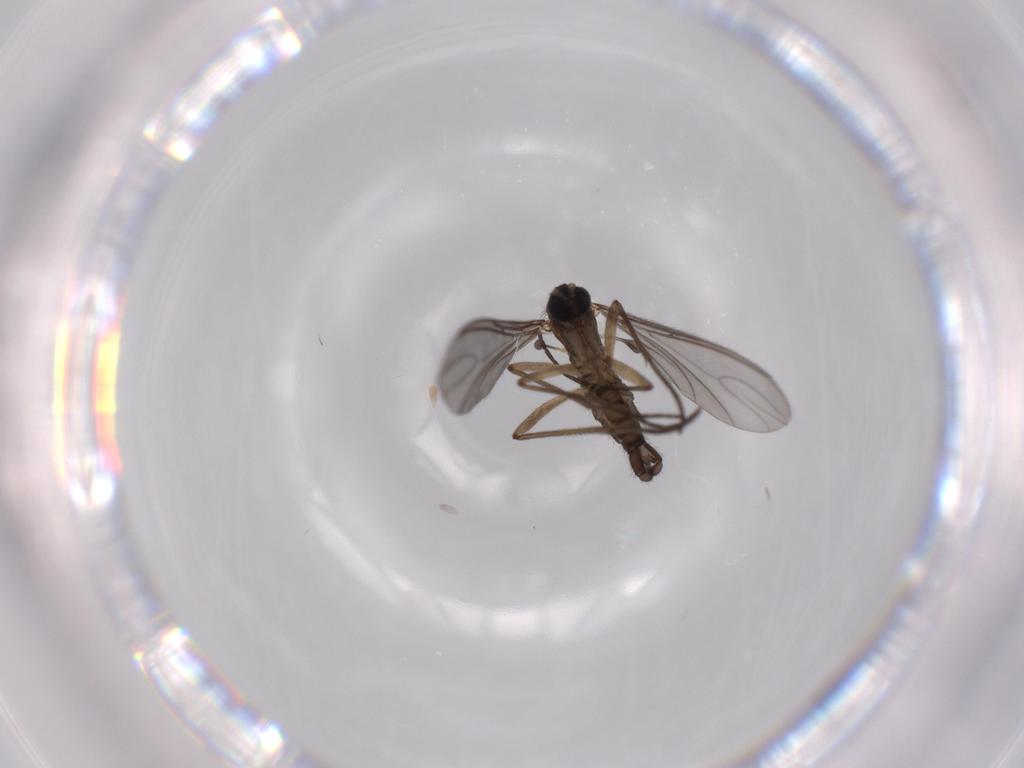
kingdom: Animalia
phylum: Arthropoda
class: Insecta
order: Diptera
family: Sciaridae
